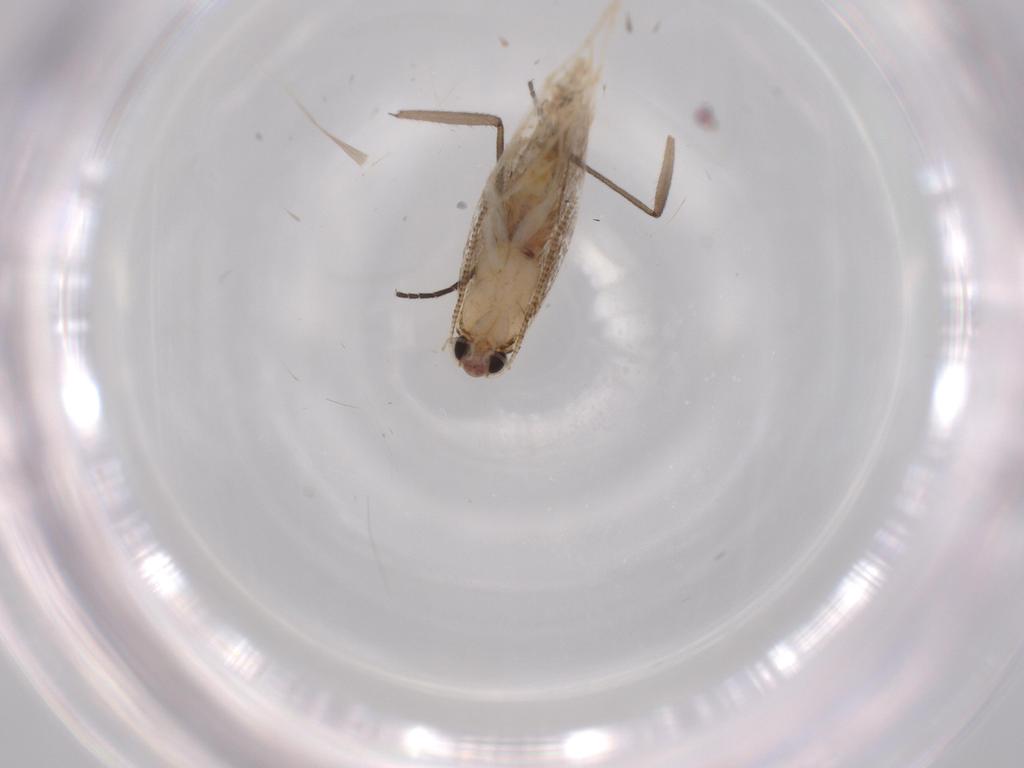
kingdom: Animalia
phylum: Arthropoda
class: Insecta
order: Lepidoptera
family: Tineidae
